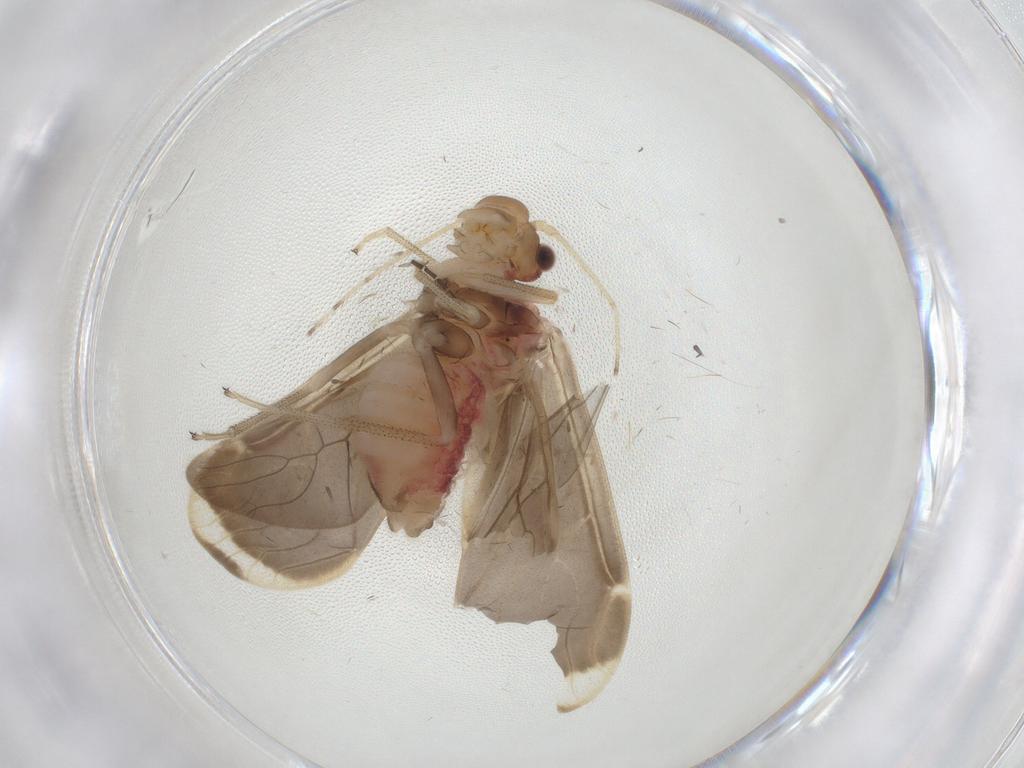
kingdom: Animalia
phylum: Arthropoda
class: Insecta
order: Psocodea
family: Amphipsocidae
